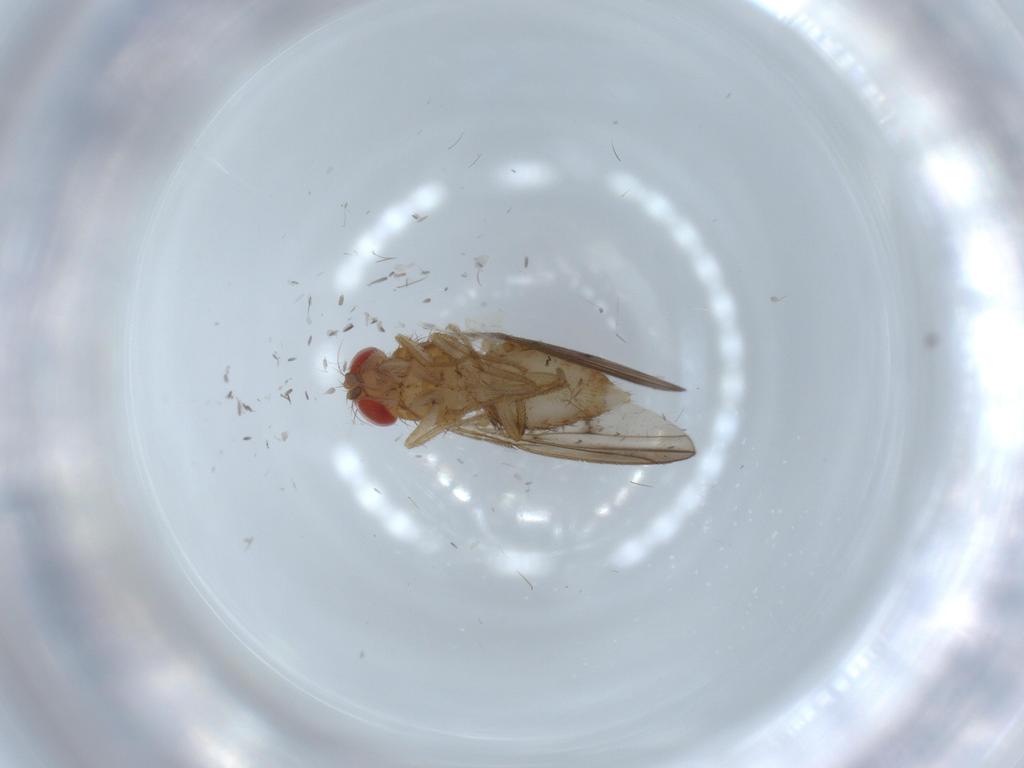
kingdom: Animalia
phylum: Arthropoda
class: Insecta
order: Diptera
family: Drosophilidae
